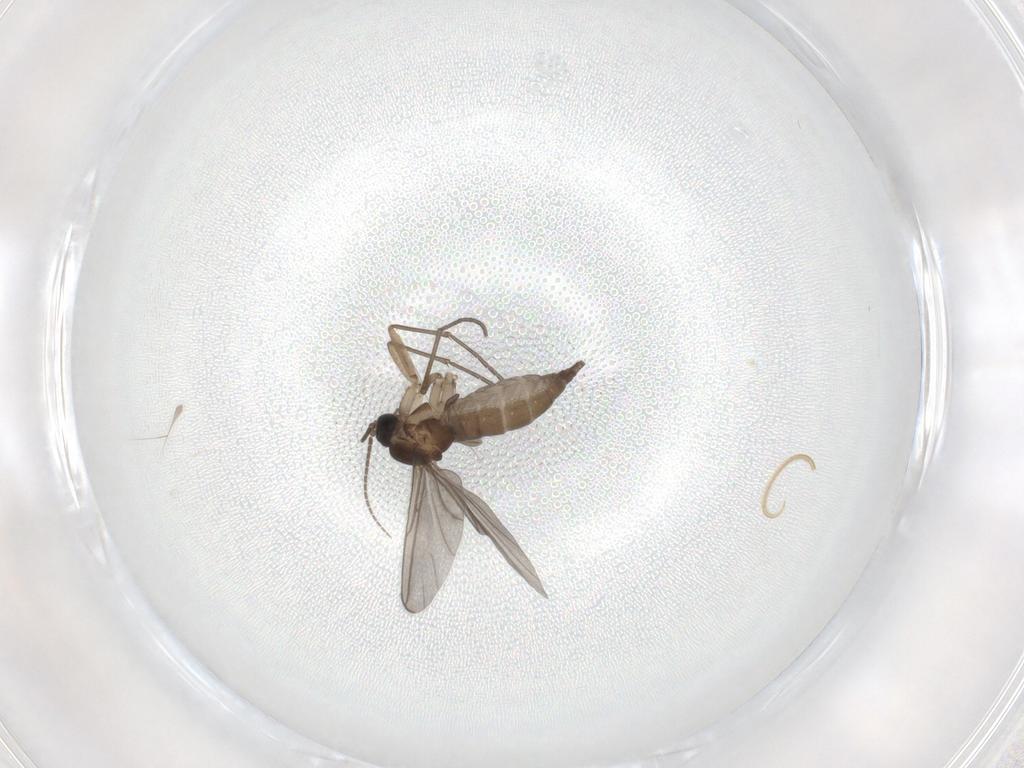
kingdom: Animalia
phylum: Arthropoda
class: Insecta
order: Diptera
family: Sciaridae
